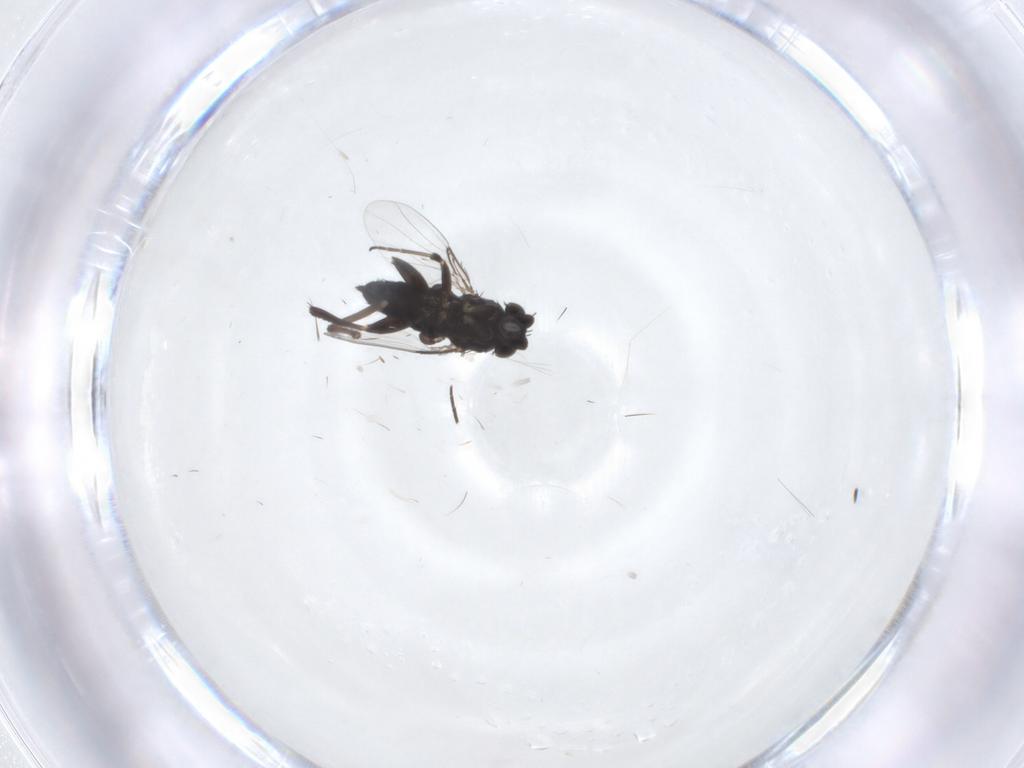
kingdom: Animalia
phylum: Arthropoda
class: Insecta
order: Diptera
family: Phoridae
